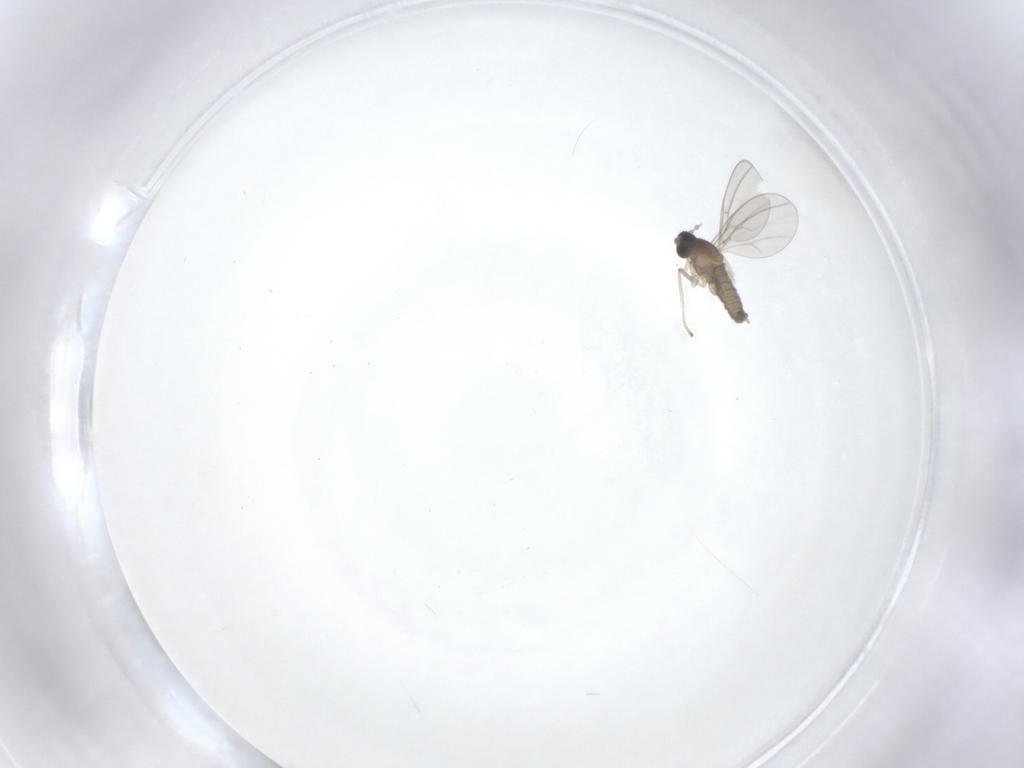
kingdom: Animalia
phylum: Arthropoda
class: Insecta
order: Diptera
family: Cecidomyiidae
